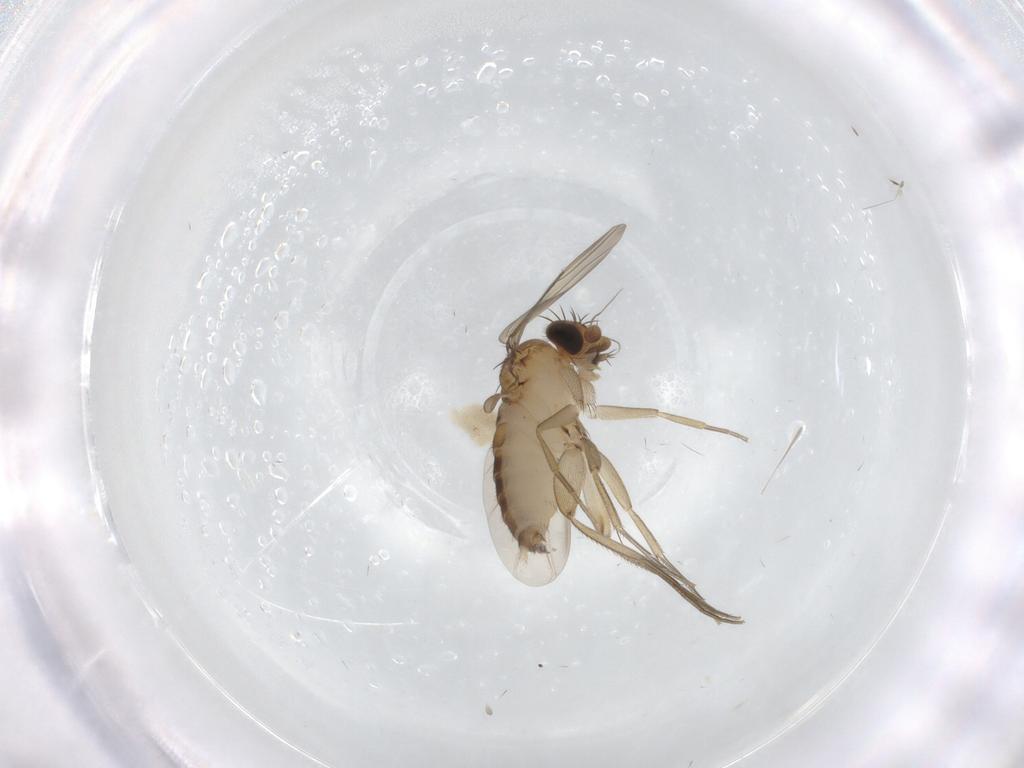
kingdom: Animalia
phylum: Arthropoda
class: Insecta
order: Diptera
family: Phoridae
